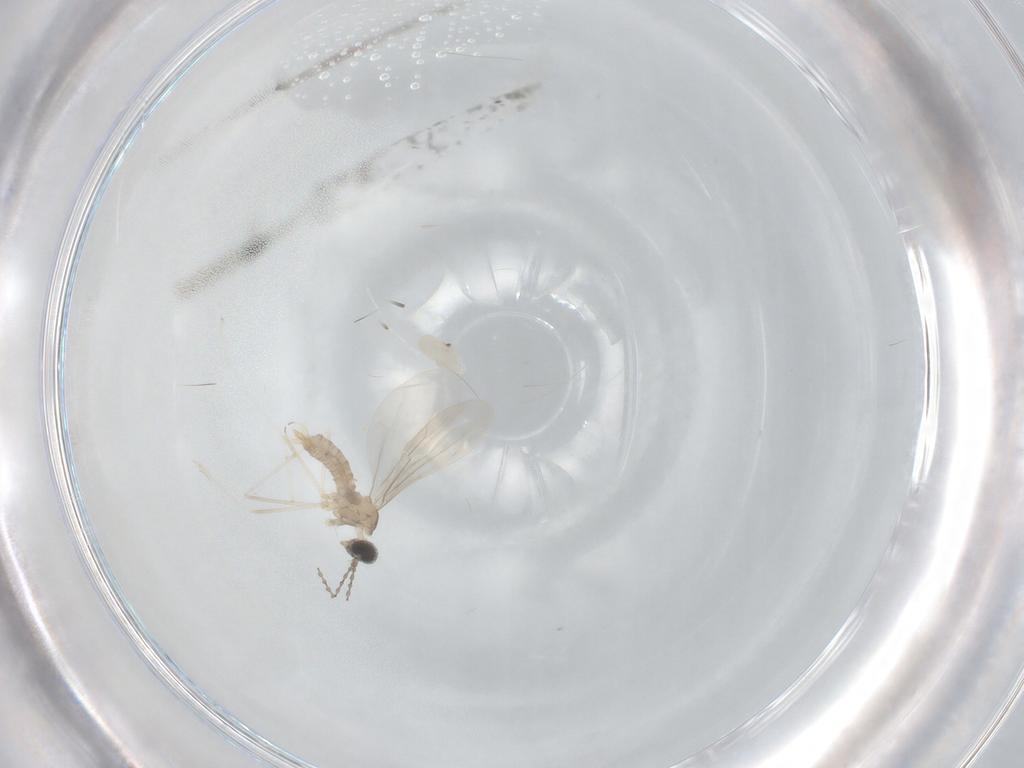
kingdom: Animalia
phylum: Arthropoda
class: Insecta
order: Diptera
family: Cecidomyiidae
